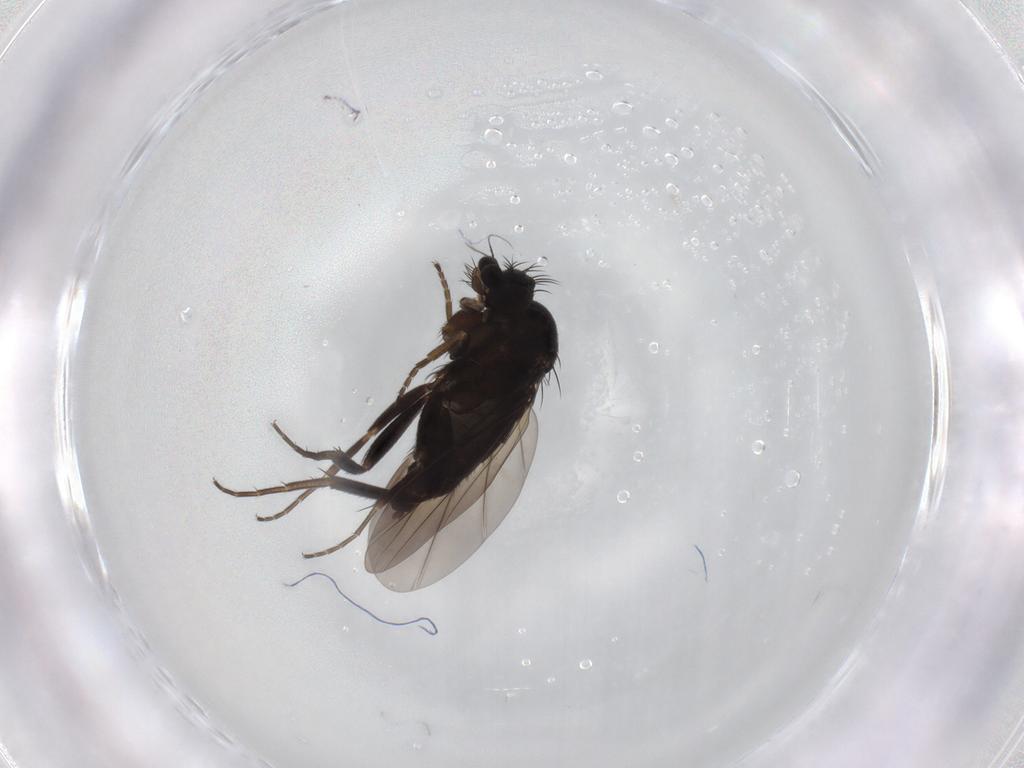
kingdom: Animalia
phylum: Arthropoda
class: Insecta
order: Diptera
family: Phoridae
